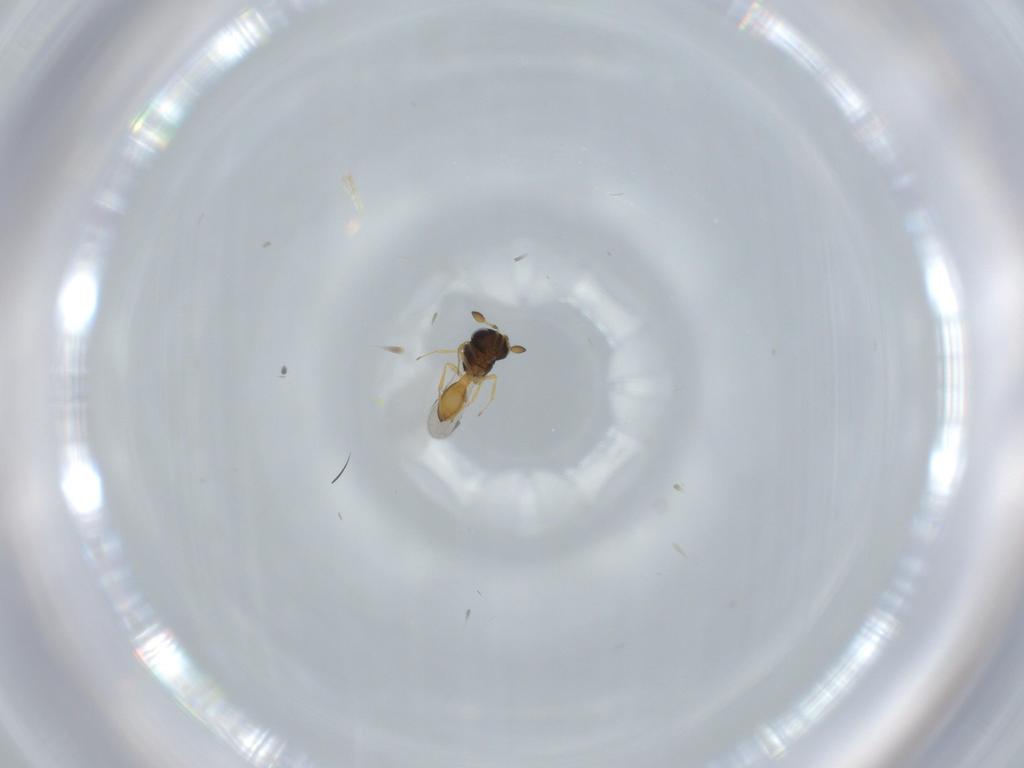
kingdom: Animalia
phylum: Arthropoda
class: Insecta
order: Hymenoptera
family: Scelionidae
